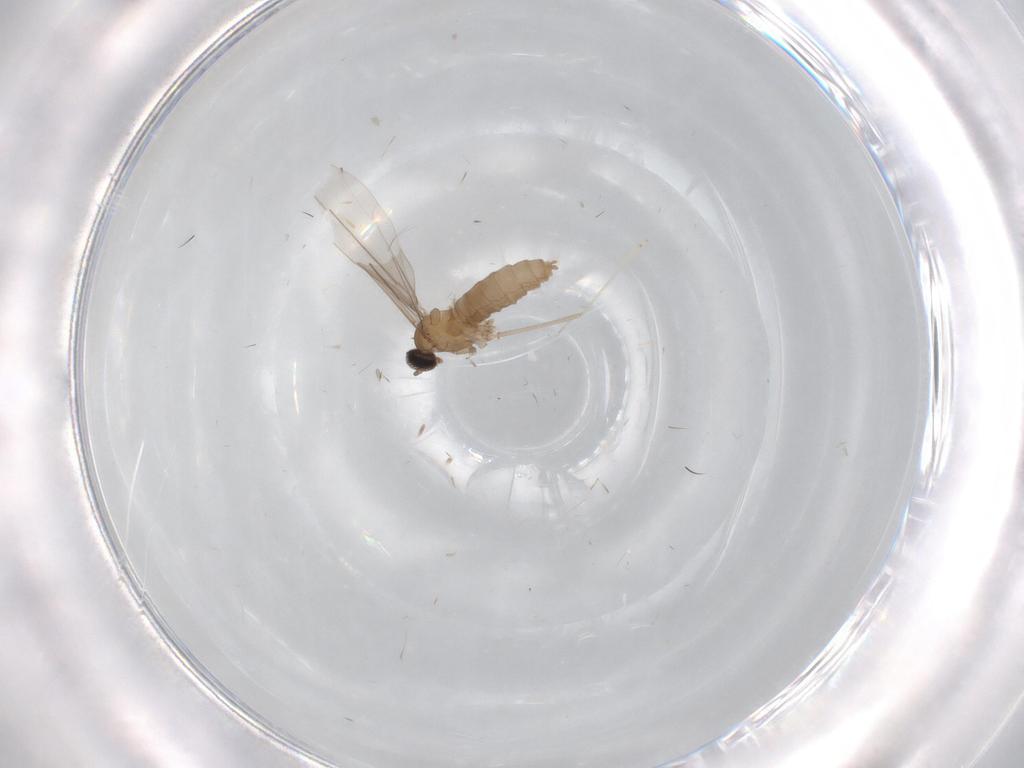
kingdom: Animalia
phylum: Arthropoda
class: Insecta
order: Diptera
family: Cecidomyiidae
